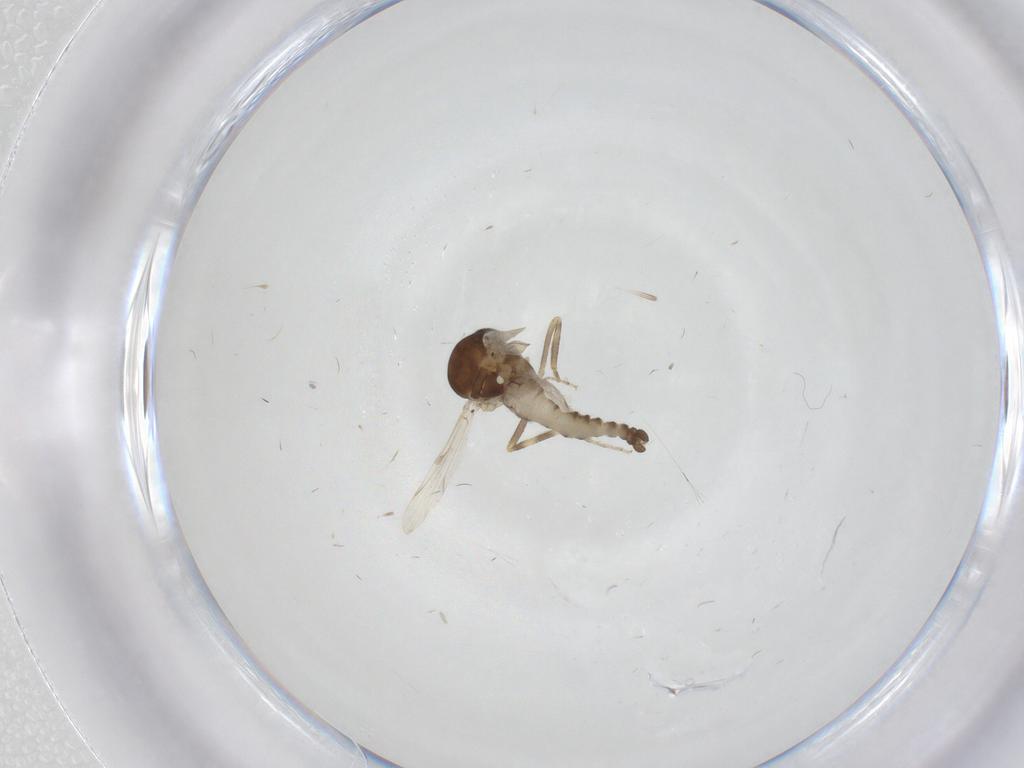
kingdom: Animalia
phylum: Arthropoda
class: Insecta
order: Diptera
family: Ceratopogonidae
